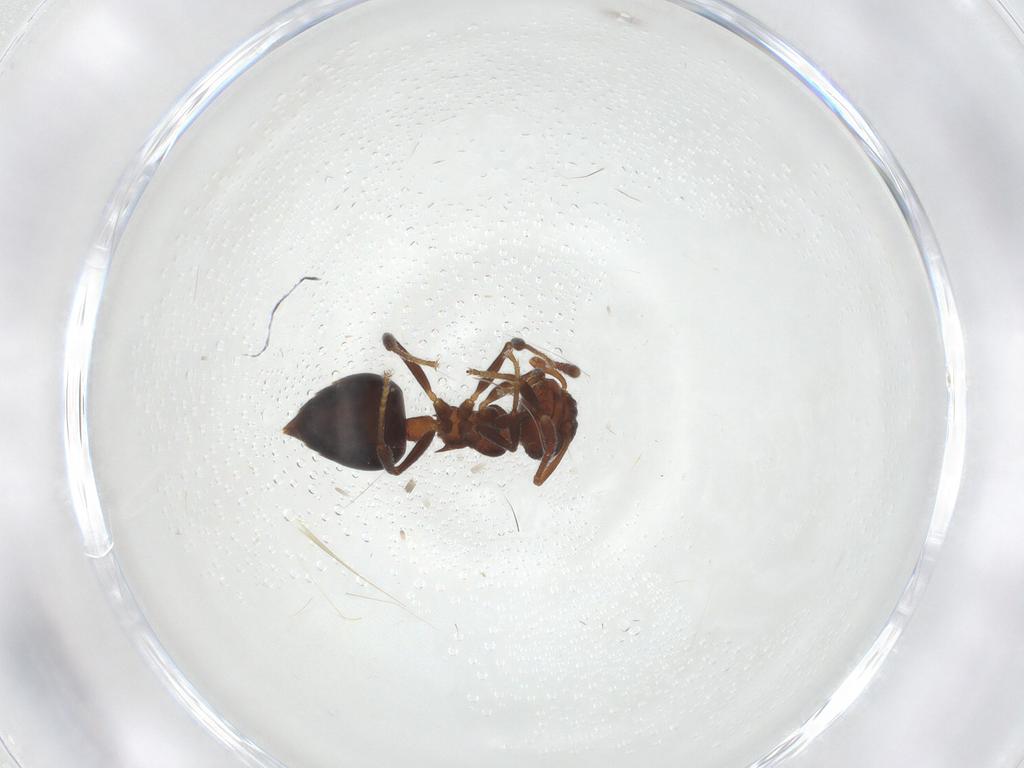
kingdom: Animalia
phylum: Arthropoda
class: Insecta
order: Hymenoptera
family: Formicidae
